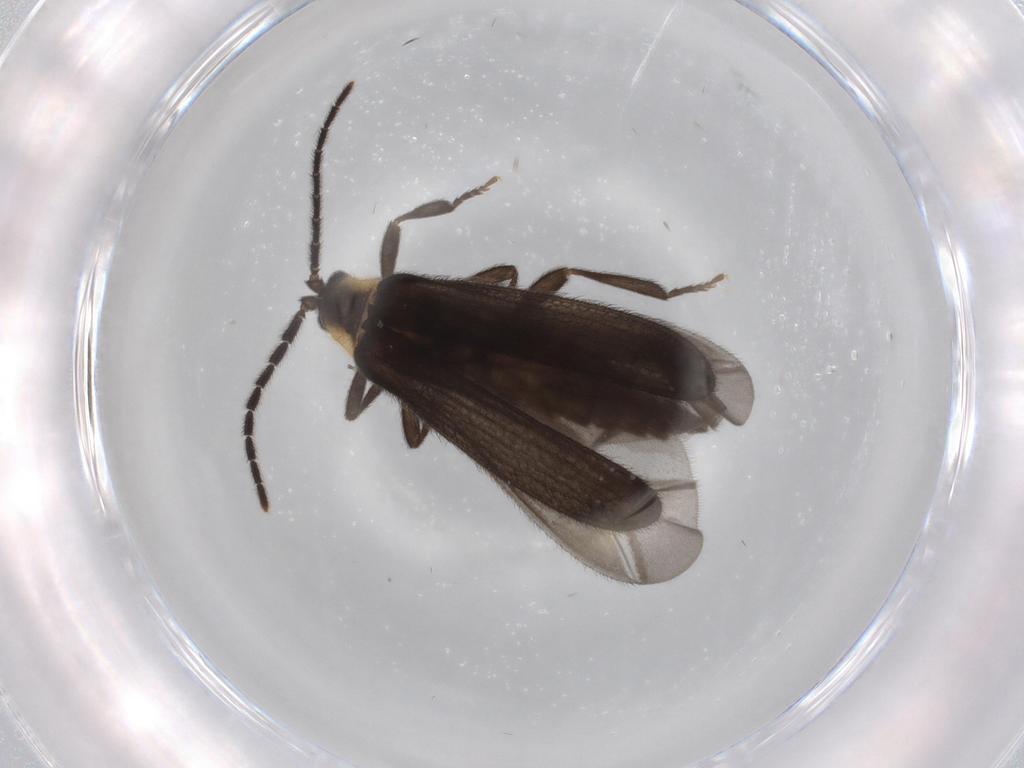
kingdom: Animalia
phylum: Arthropoda
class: Insecta
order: Coleoptera
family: Lycidae
